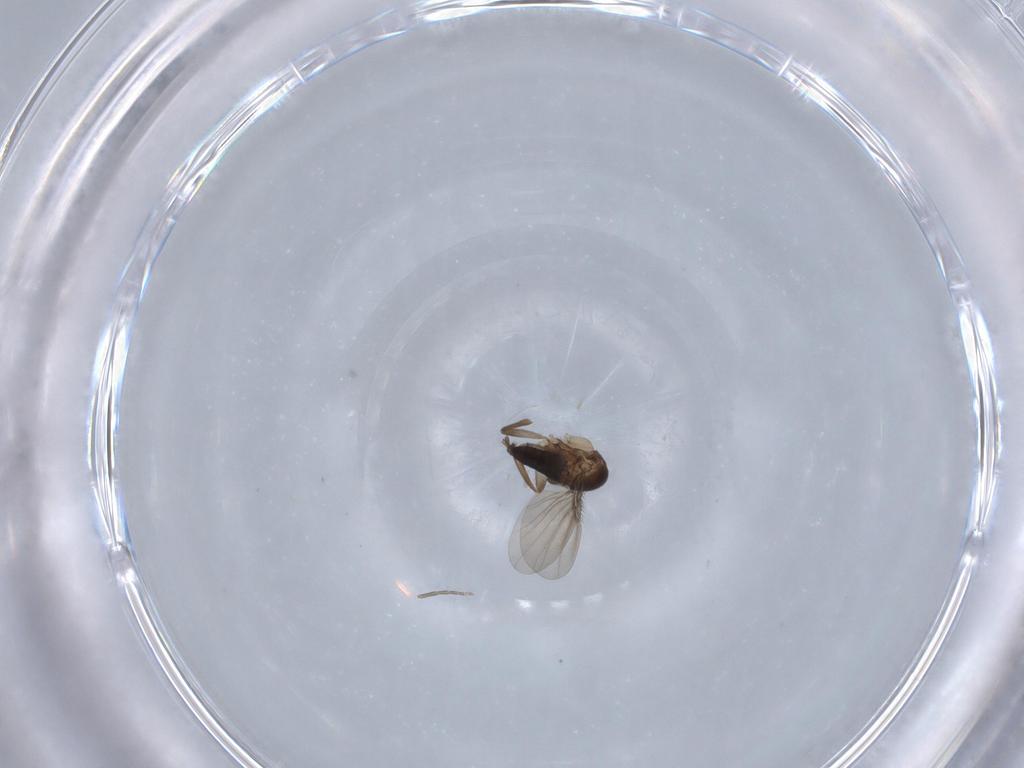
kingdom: Animalia
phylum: Arthropoda
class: Insecta
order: Diptera
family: Phoridae
